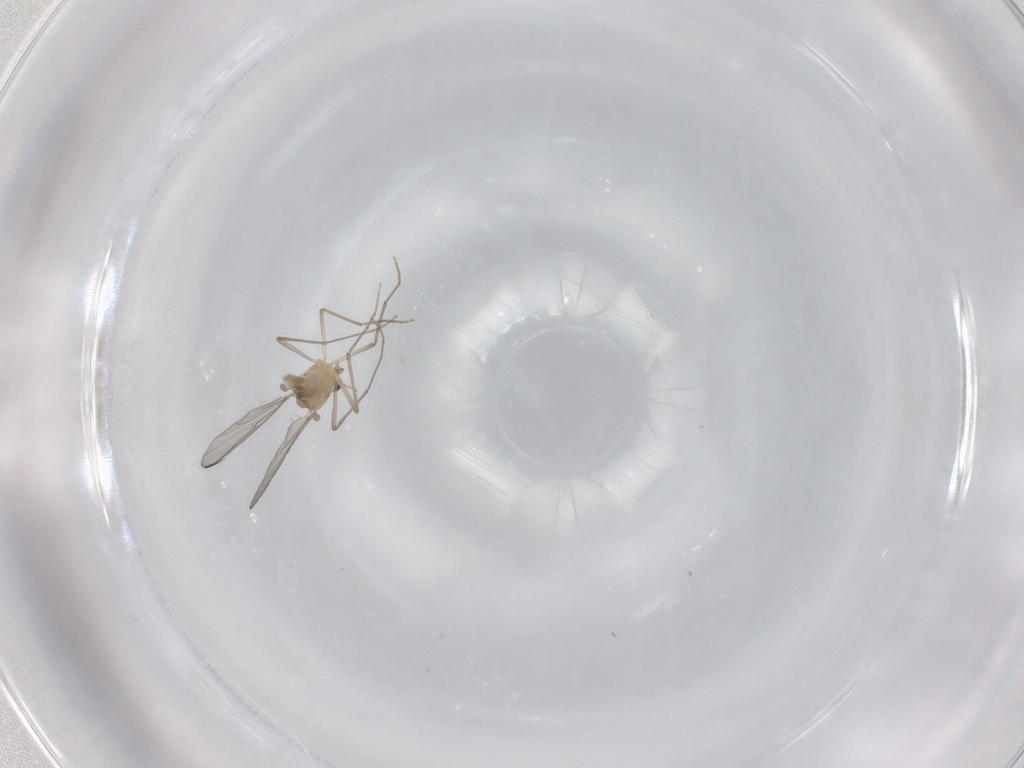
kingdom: Animalia
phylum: Arthropoda
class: Insecta
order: Diptera
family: Chironomidae
